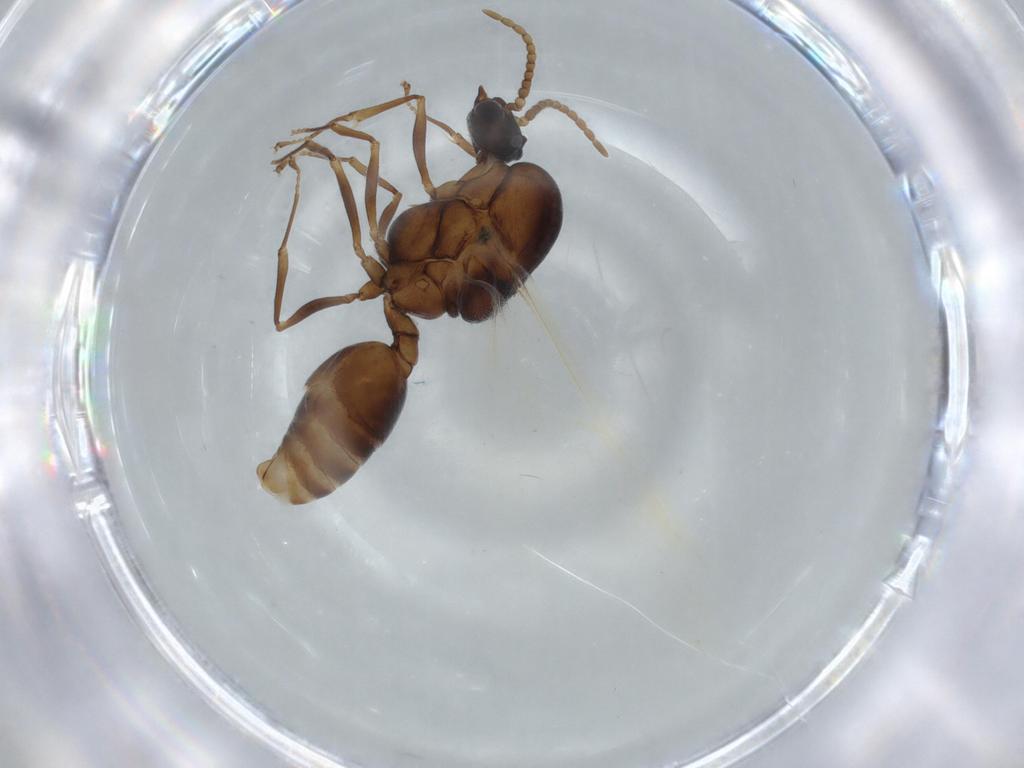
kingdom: Animalia
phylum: Arthropoda
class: Insecta
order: Hymenoptera
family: Formicidae
